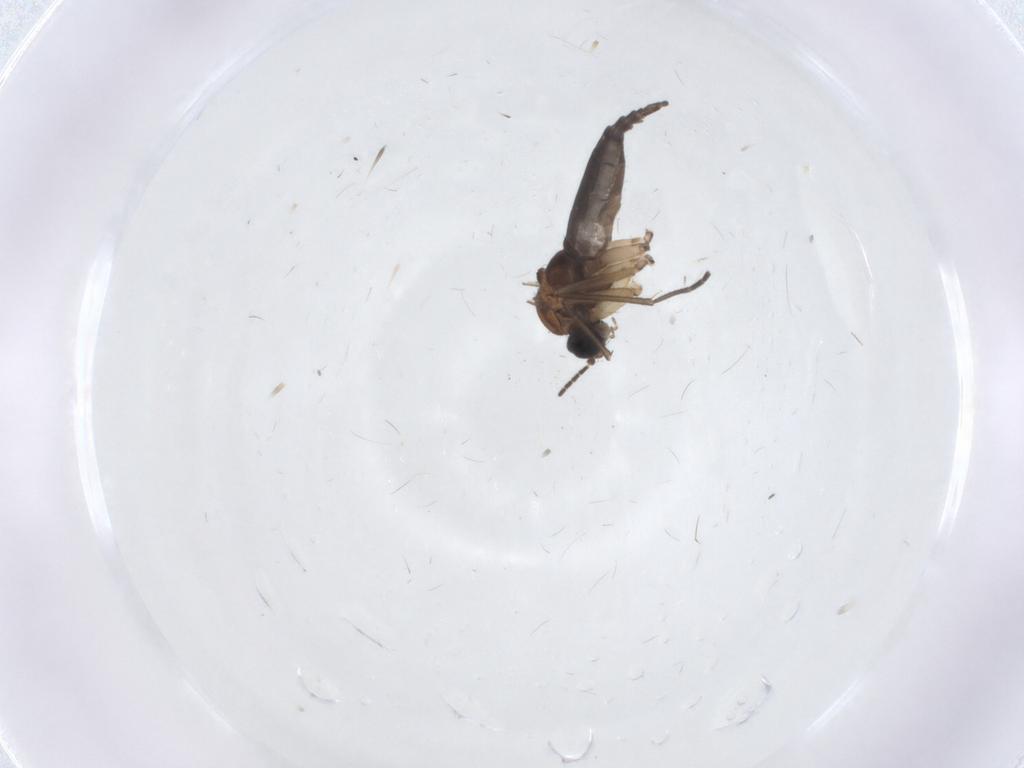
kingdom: Animalia
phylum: Arthropoda
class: Insecta
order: Diptera
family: Sciaridae
